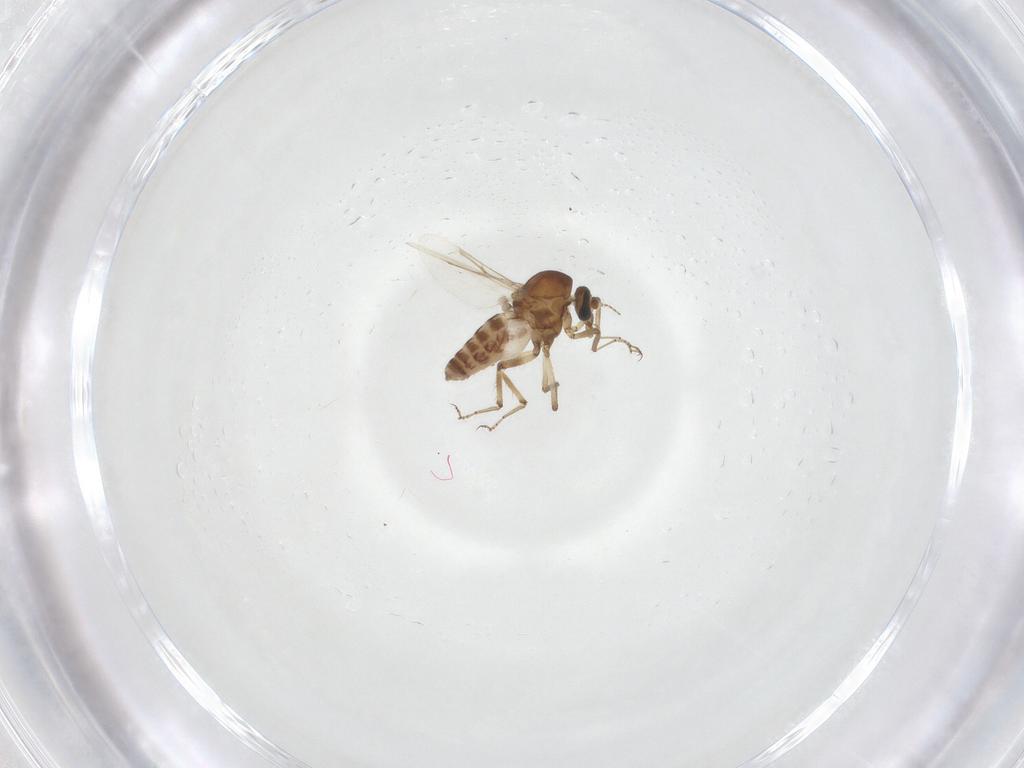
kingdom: Animalia
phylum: Arthropoda
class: Insecta
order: Diptera
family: Ceratopogonidae
